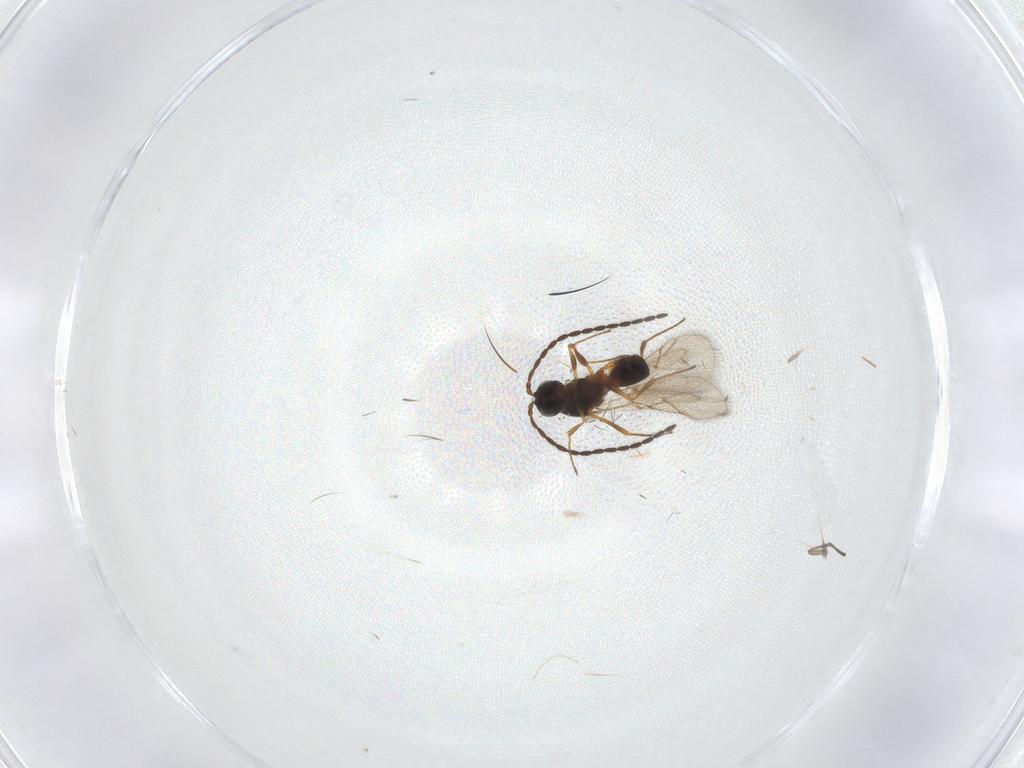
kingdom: Animalia
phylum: Arthropoda
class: Insecta
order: Hymenoptera
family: Figitidae
